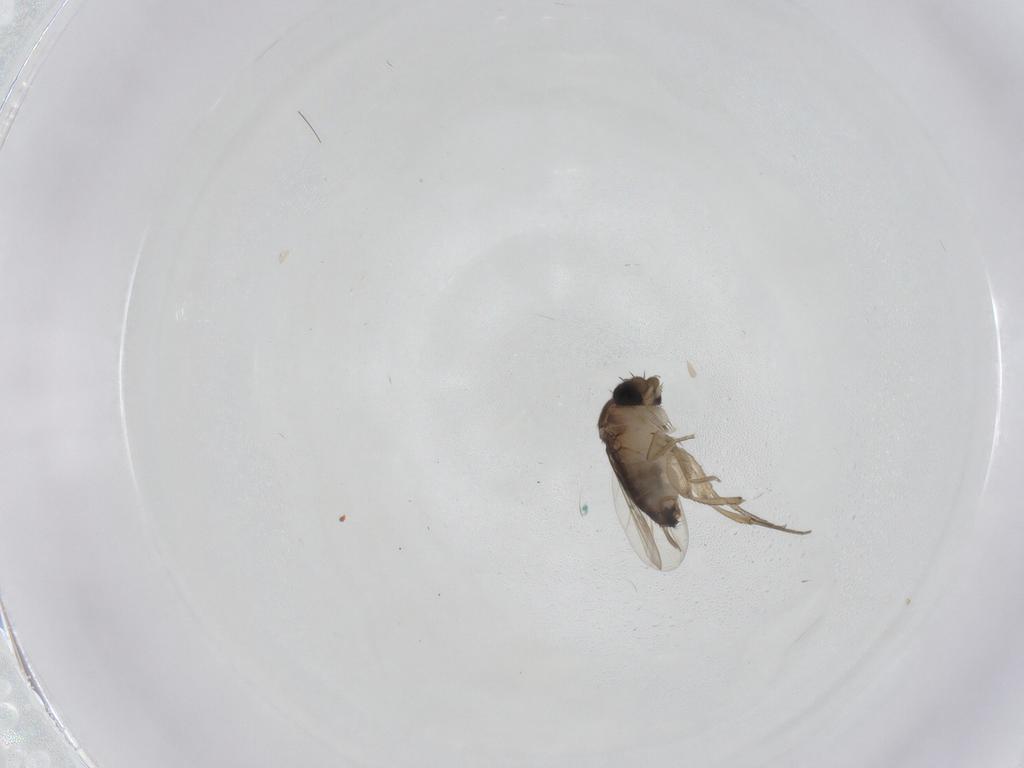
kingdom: Animalia
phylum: Arthropoda
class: Insecta
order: Diptera
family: Phoridae
